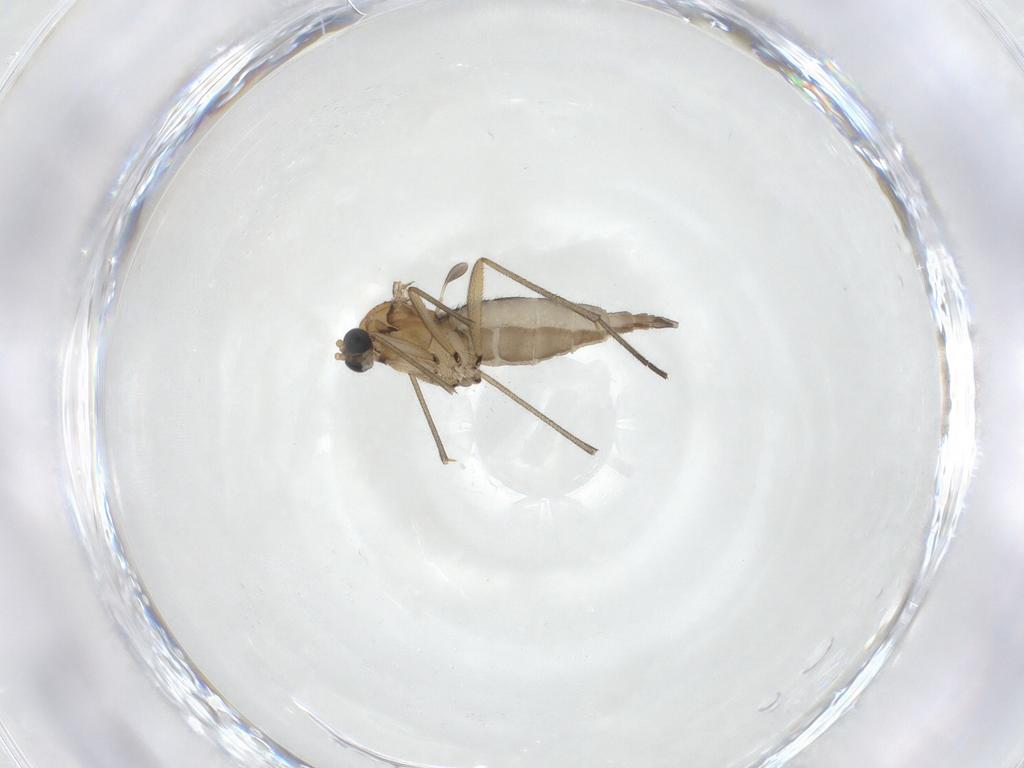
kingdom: Animalia
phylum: Arthropoda
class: Insecta
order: Diptera
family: Sciaridae
